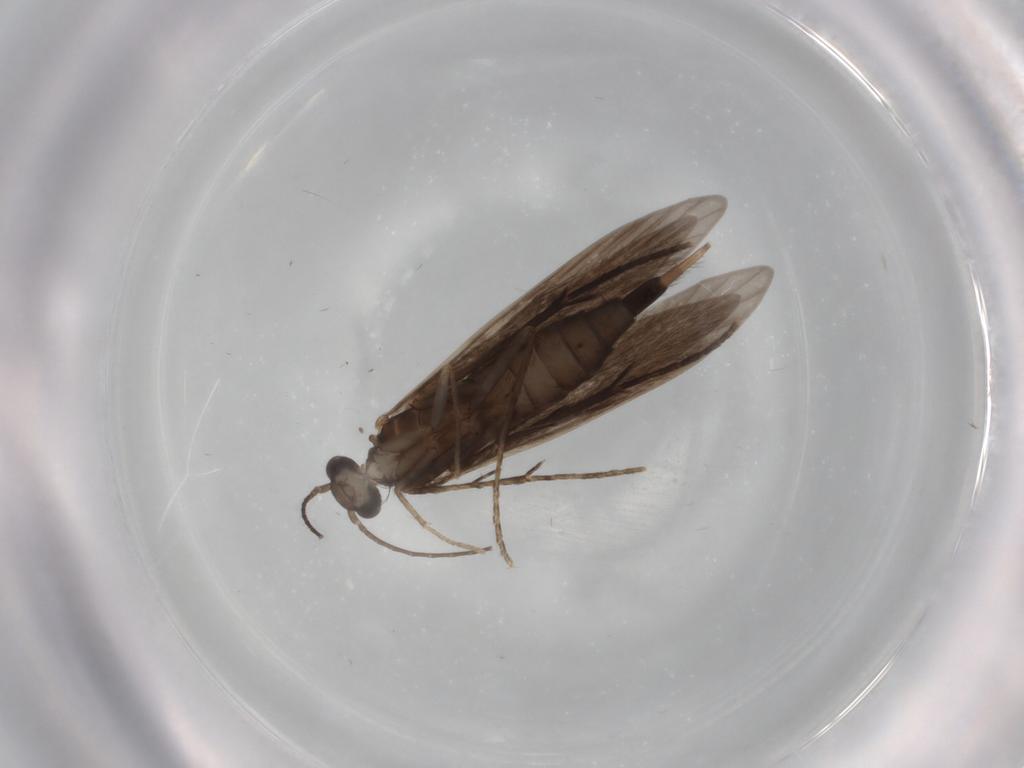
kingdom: Animalia
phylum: Arthropoda
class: Insecta
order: Trichoptera
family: Xiphocentronidae
